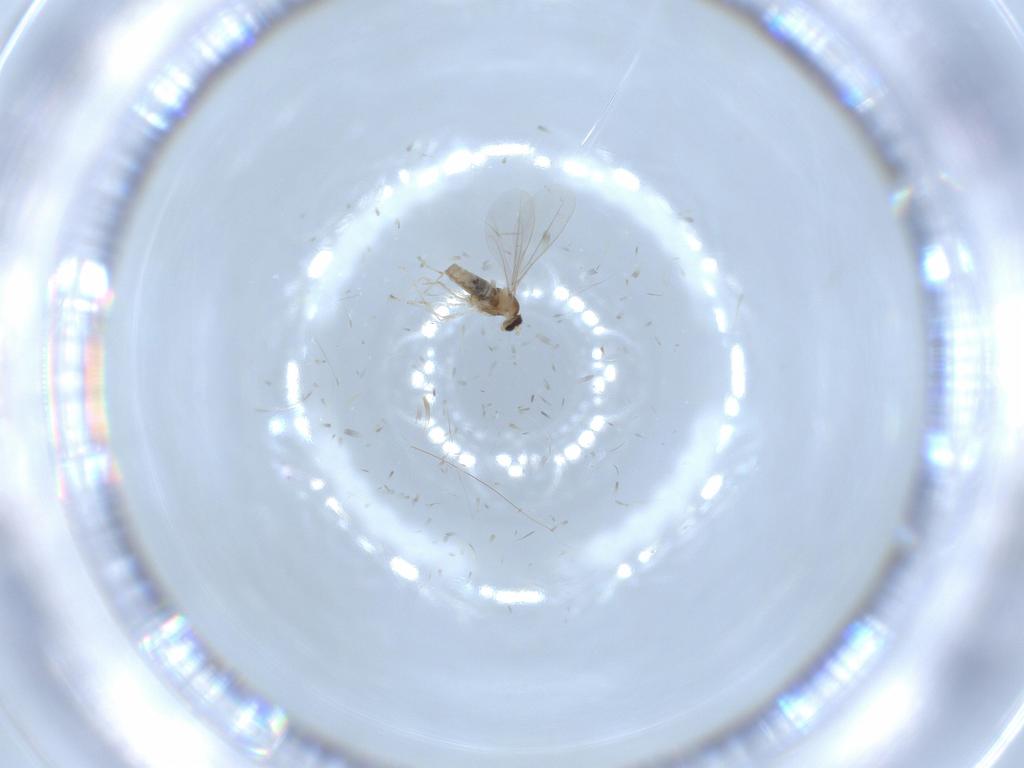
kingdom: Animalia
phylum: Arthropoda
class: Insecta
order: Diptera
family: Cecidomyiidae
